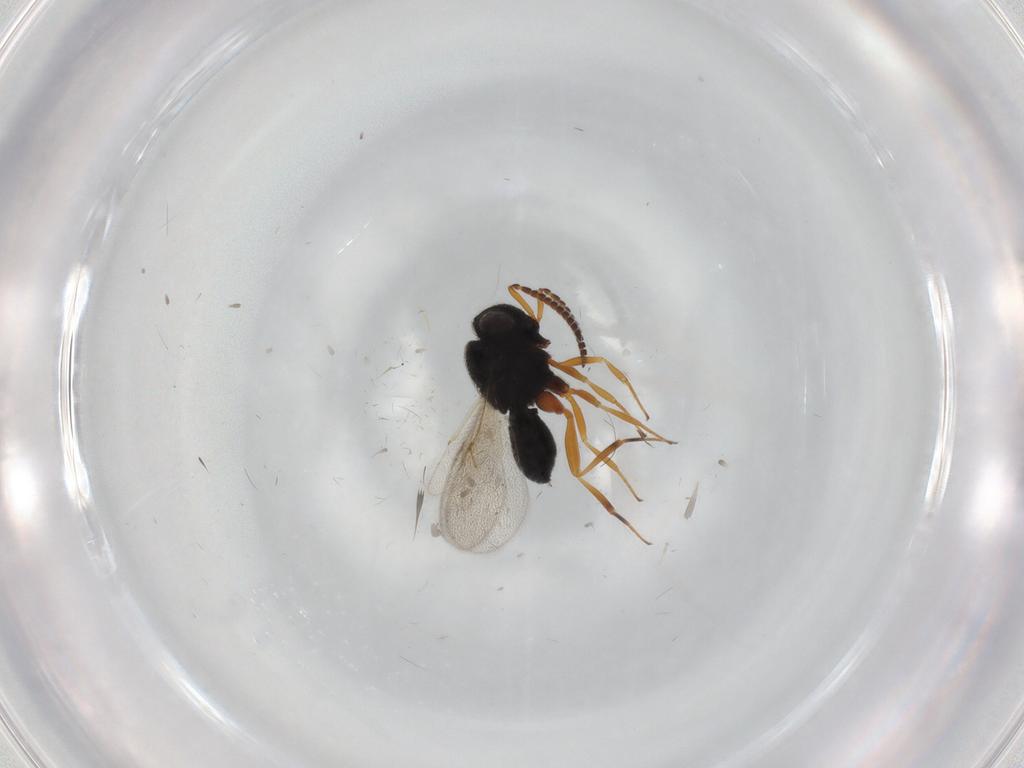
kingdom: Animalia
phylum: Arthropoda
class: Insecta
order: Hymenoptera
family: Scelionidae
